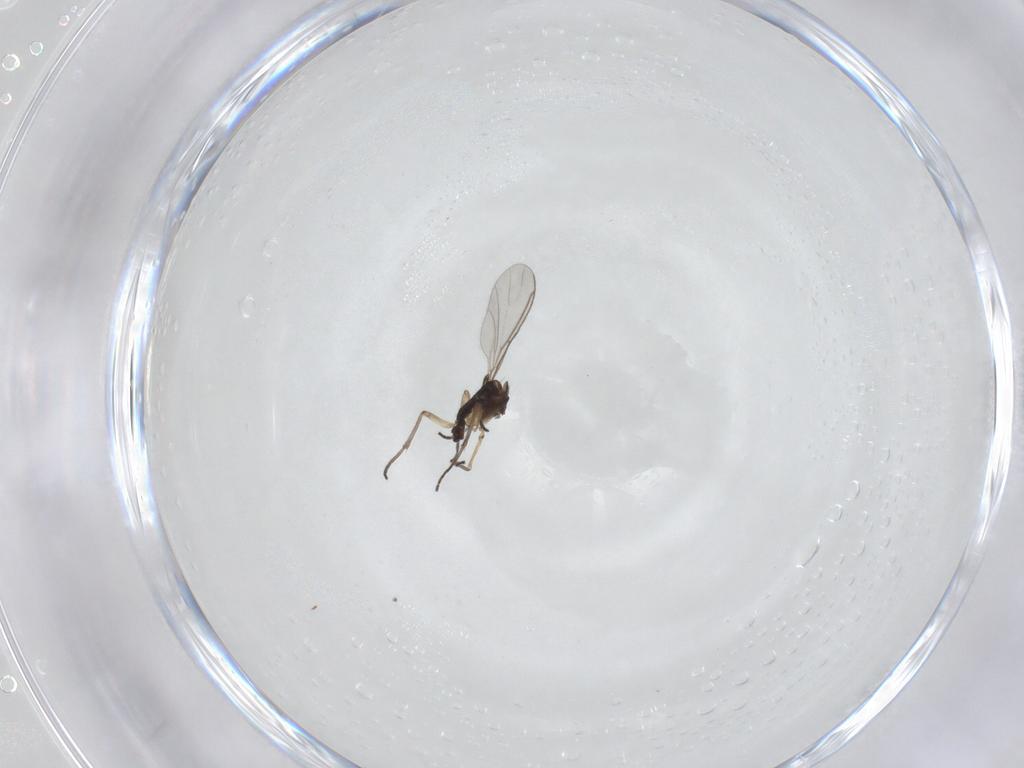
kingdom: Animalia
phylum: Arthropoda
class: Insecta
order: Diptera
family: Sciaridae
